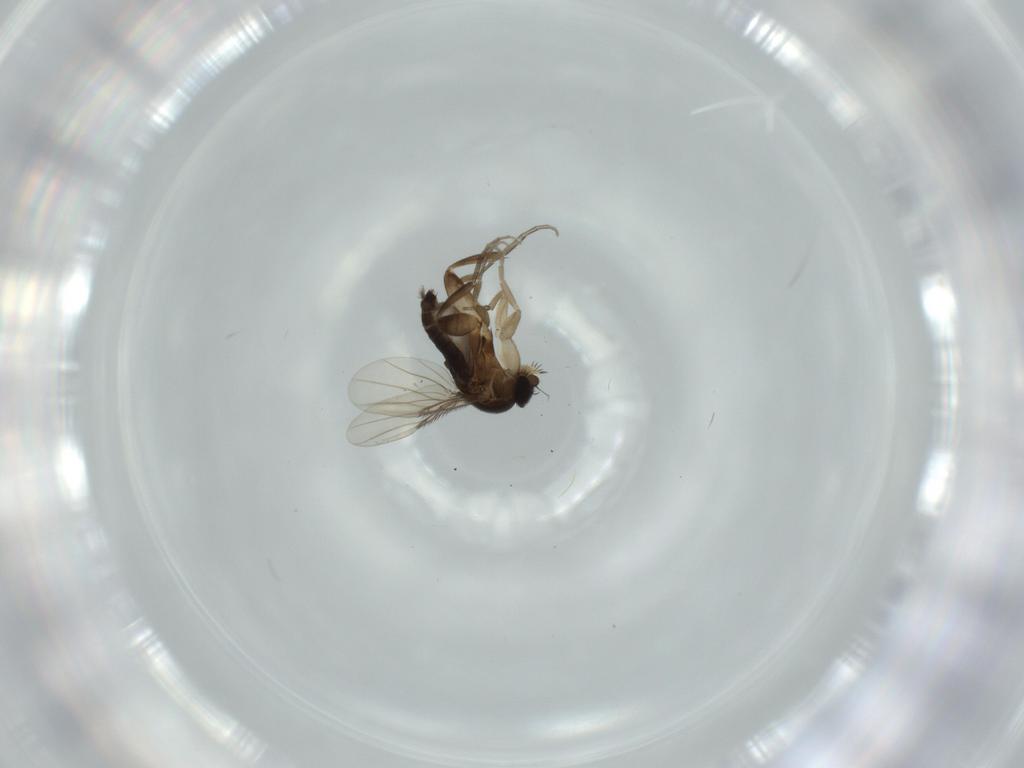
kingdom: Animalia
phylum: Arthropoda
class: Insecta
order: Diptera
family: Phoridae
